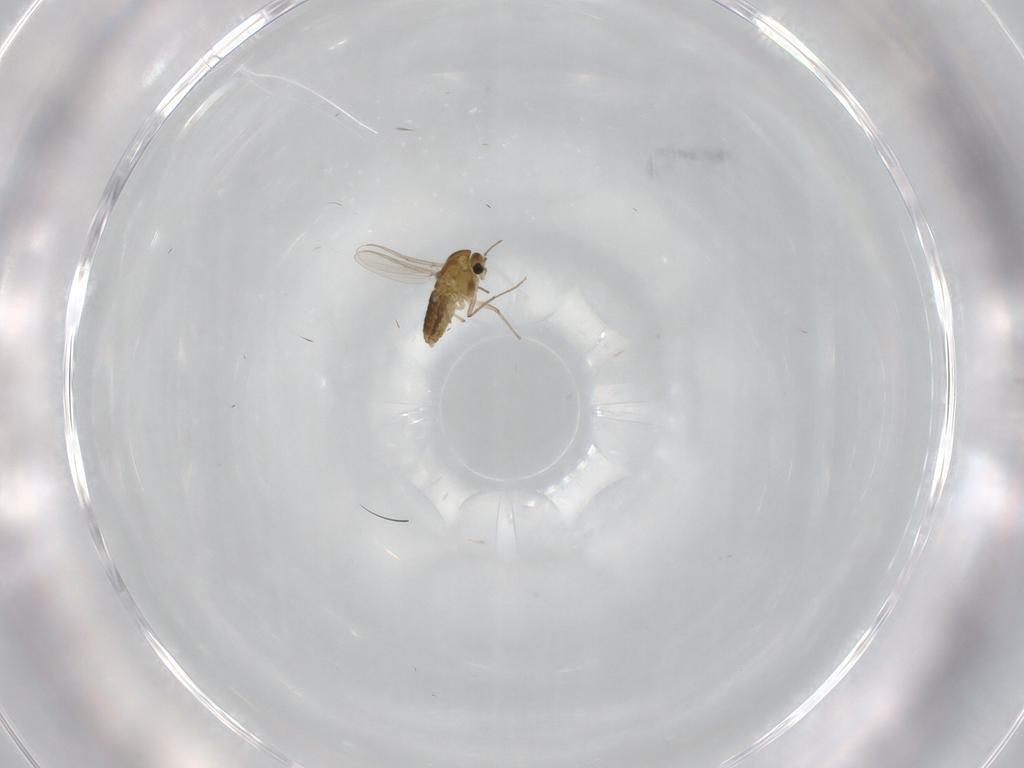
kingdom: Animalia
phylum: Arthropoda
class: Insecta
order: Diptera
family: Chironomidae
